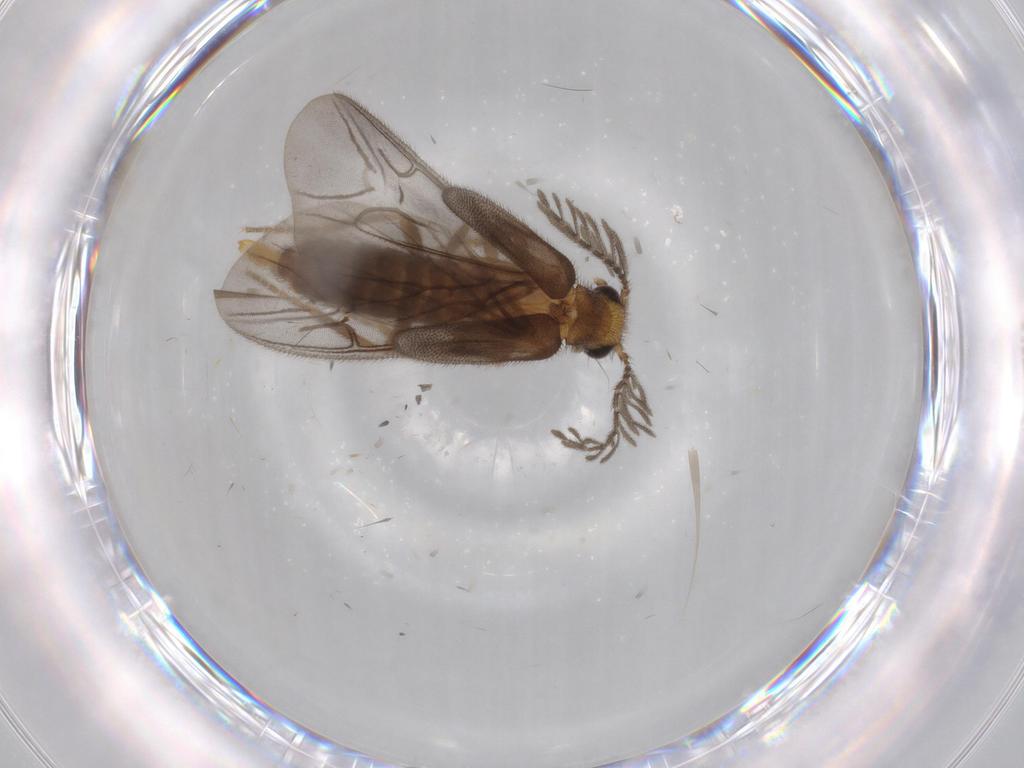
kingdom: Animalia
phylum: Arthropoda
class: Insecta
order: Coleoptera
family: Phengodidae
